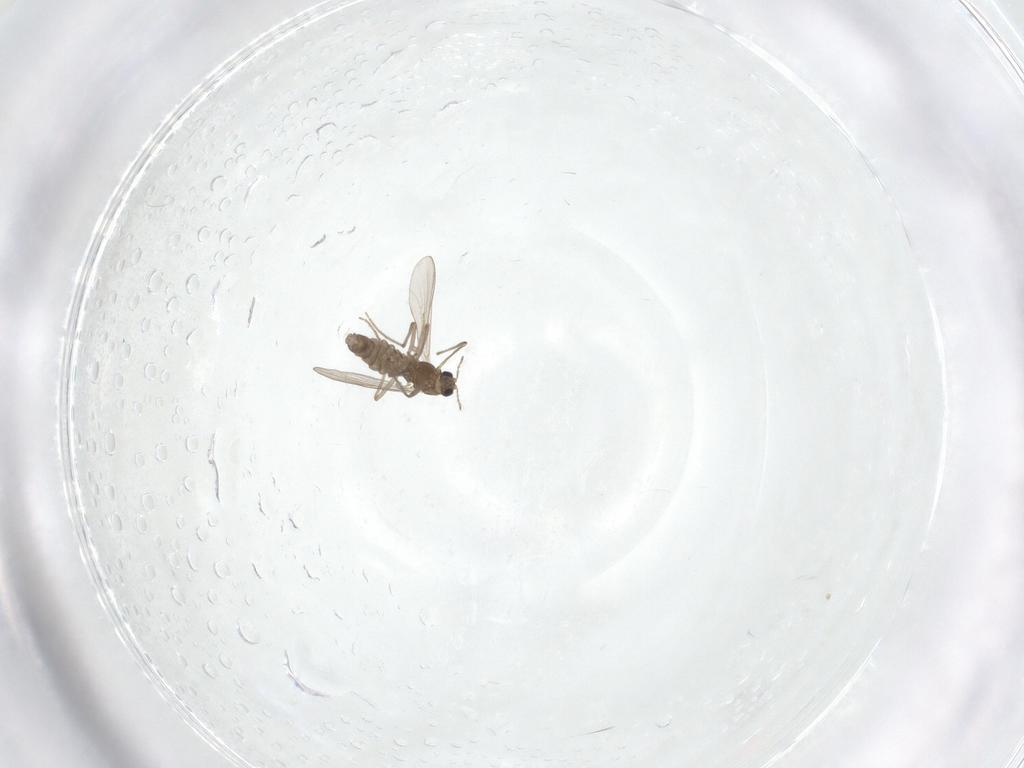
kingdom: Animalia
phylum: Arthropoda
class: Insecta
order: Diptera
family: Chironomidae
